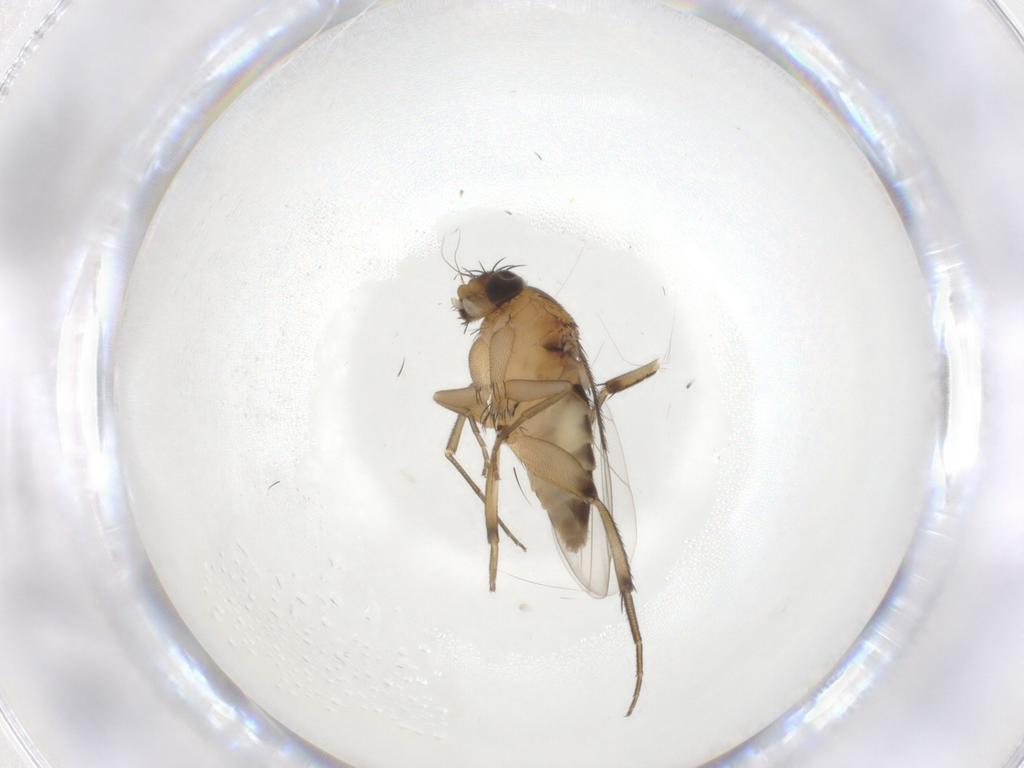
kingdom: Animalia
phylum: Arthropoda
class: Insecta
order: Diptera
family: Phoridae
